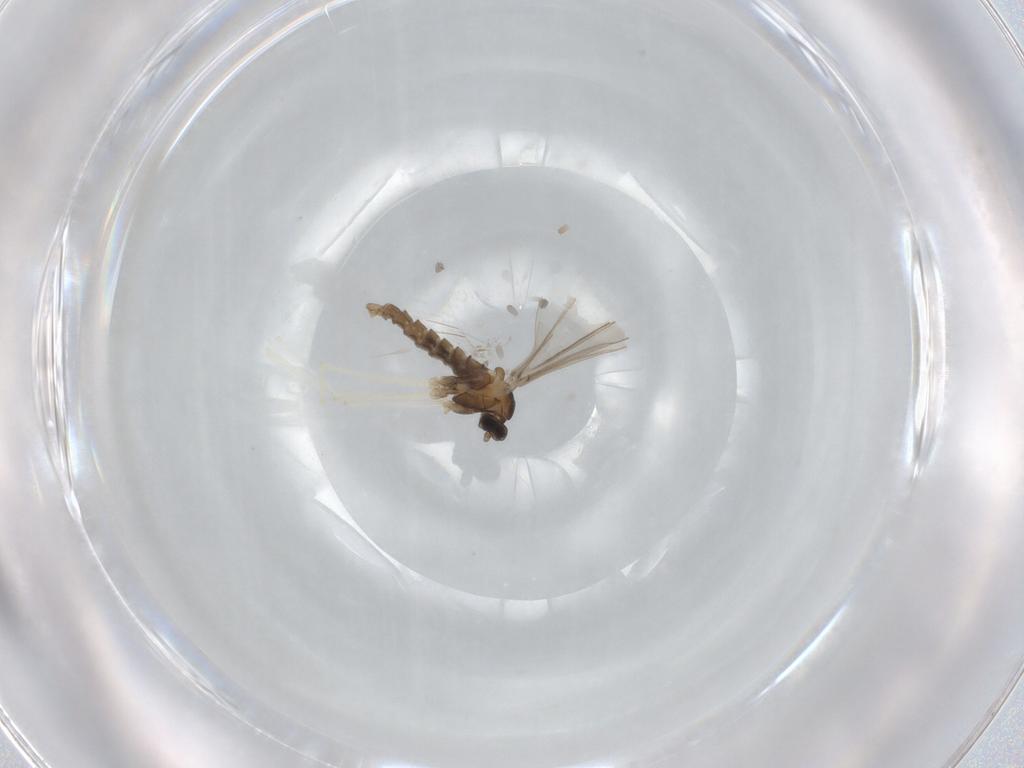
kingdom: Animalia
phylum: Arthropoda
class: Insecta
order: Diptera
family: Cecidomyiidae
